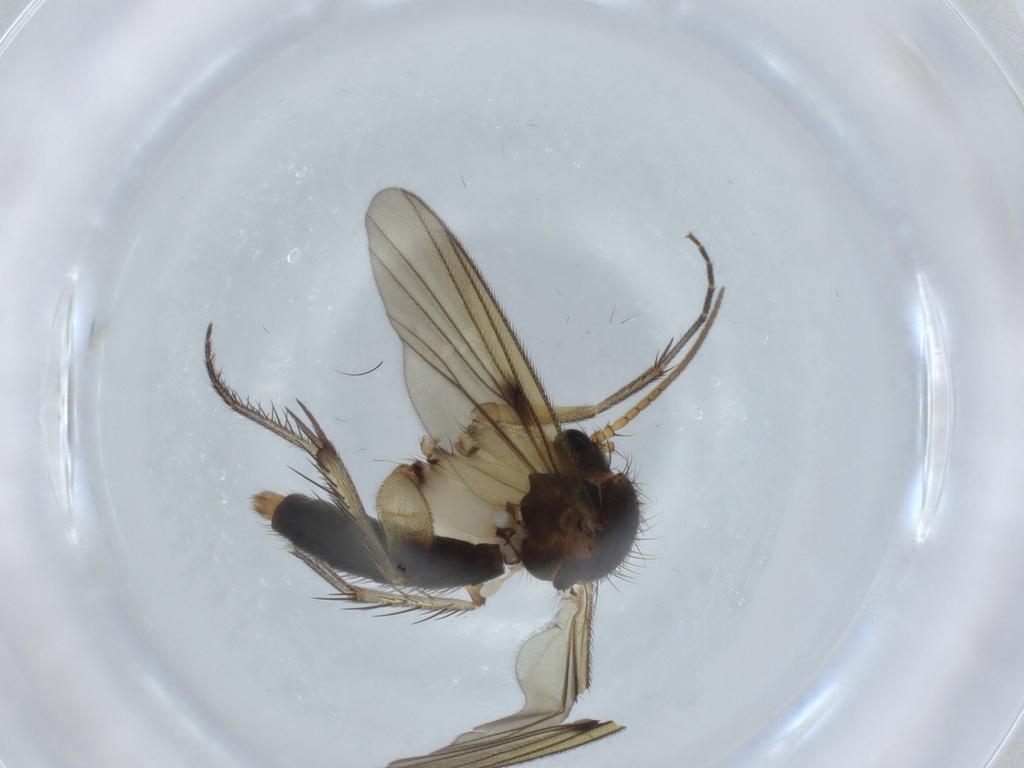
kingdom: Animalia
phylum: Arthropoda
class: Insecta
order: Diptera
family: Mycetophilidae
